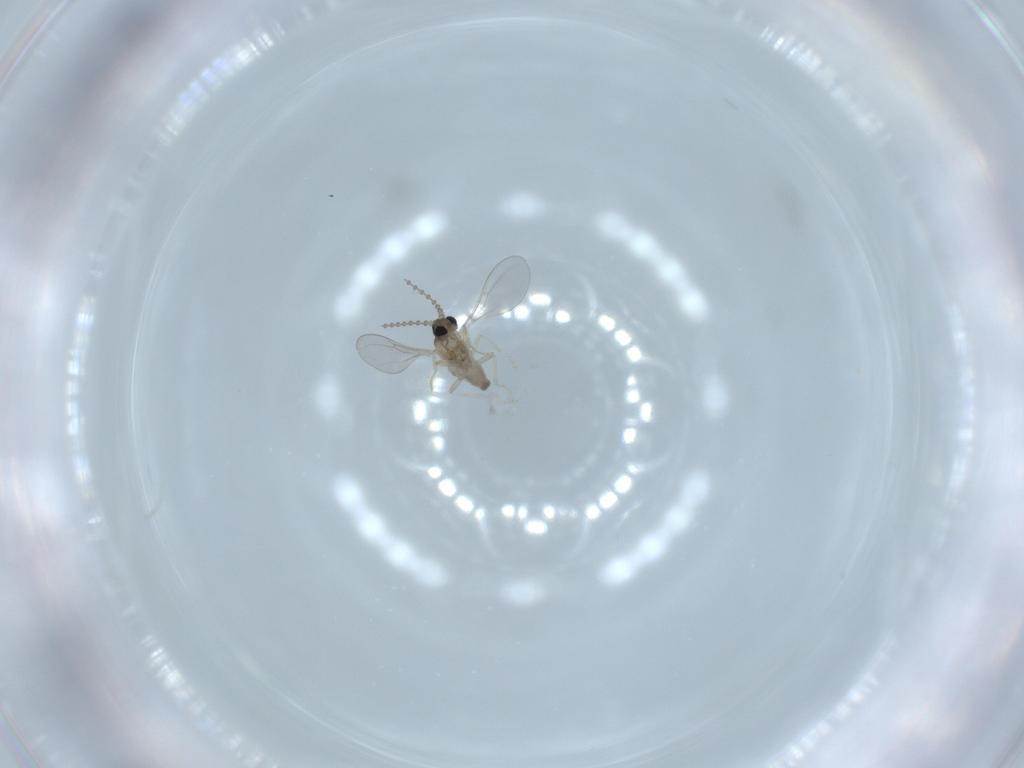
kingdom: Animalia
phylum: Arthropoda
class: Insecta
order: Diptera
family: Cecidomyiidae
